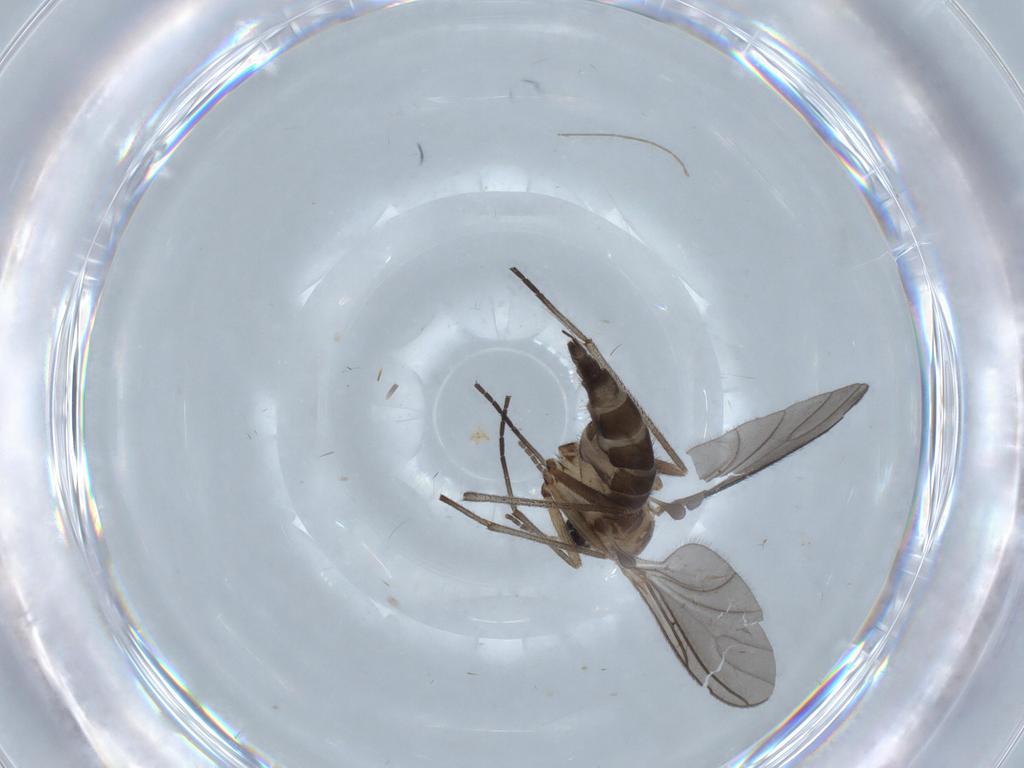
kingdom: Animalia
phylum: Arthropoda
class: Insecta
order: Diptera
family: Sciaridae
